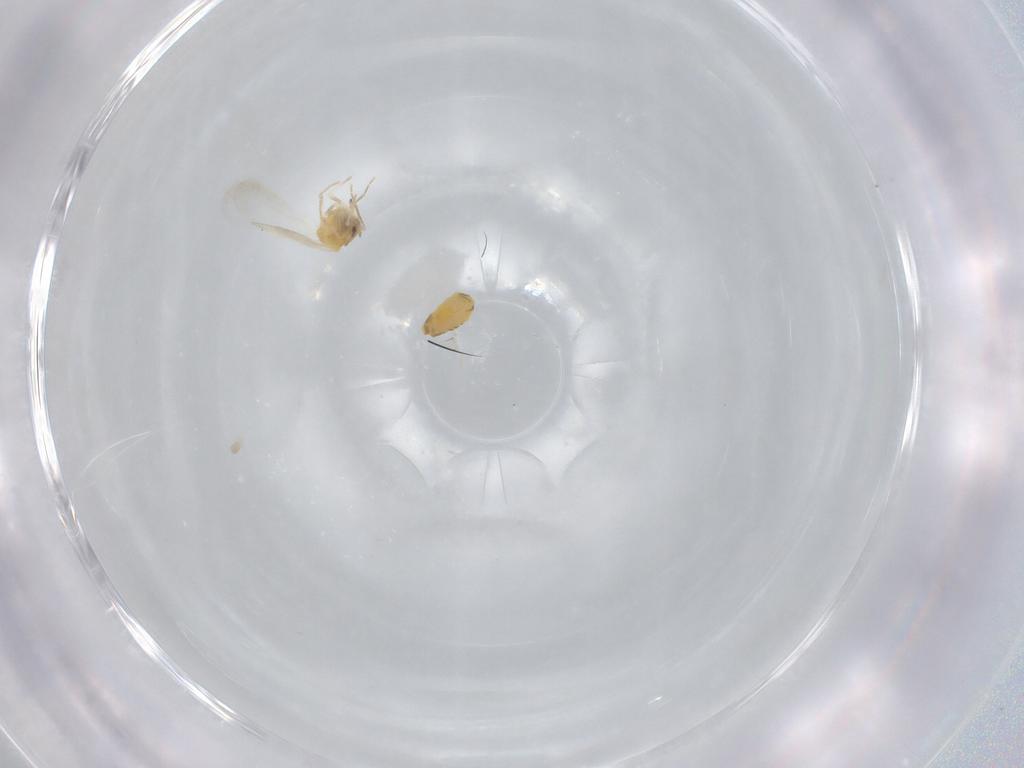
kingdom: Animalia
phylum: Arthropoda
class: Insecta
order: Hemiptera
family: Aleyrodidae
